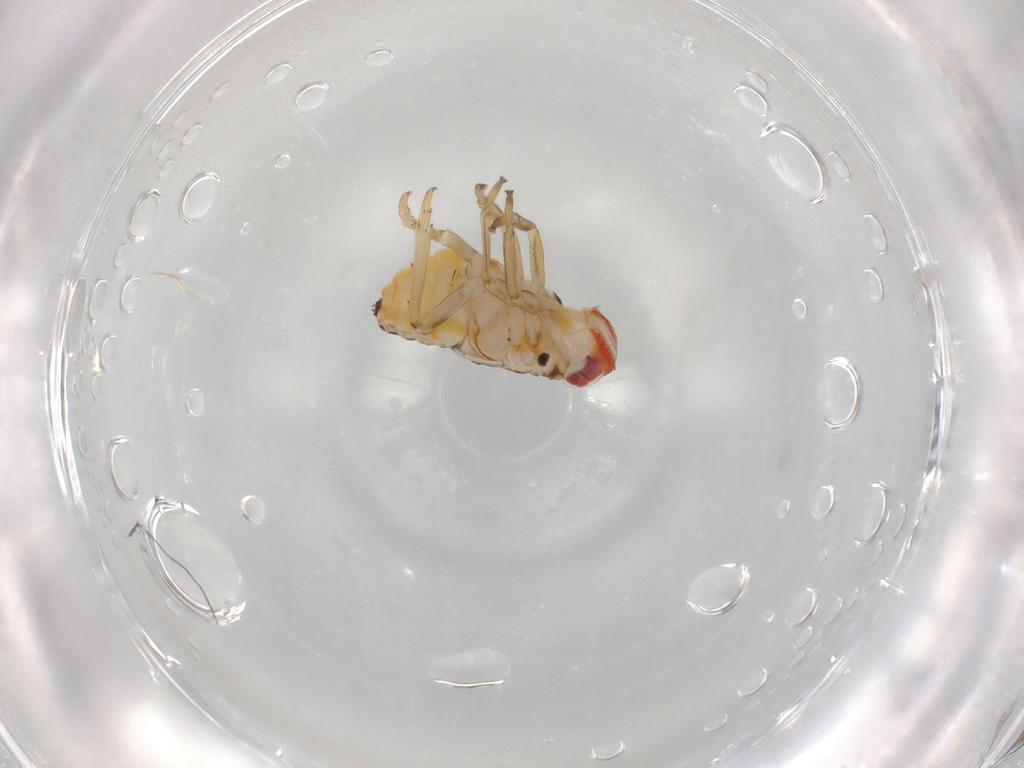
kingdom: Animalia
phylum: Arthropoda
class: Insecta
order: Hemiptera
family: Issidae
